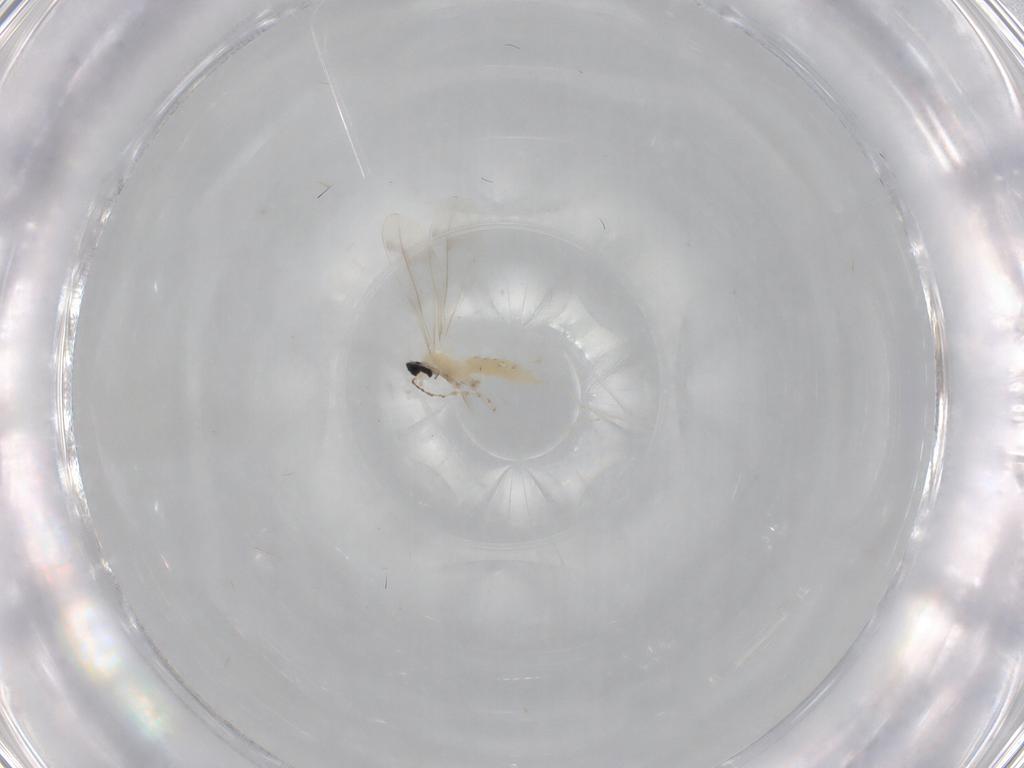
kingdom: Animalia
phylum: Arthropoda
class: Insecta
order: Diptera
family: Cecidomyiidae
